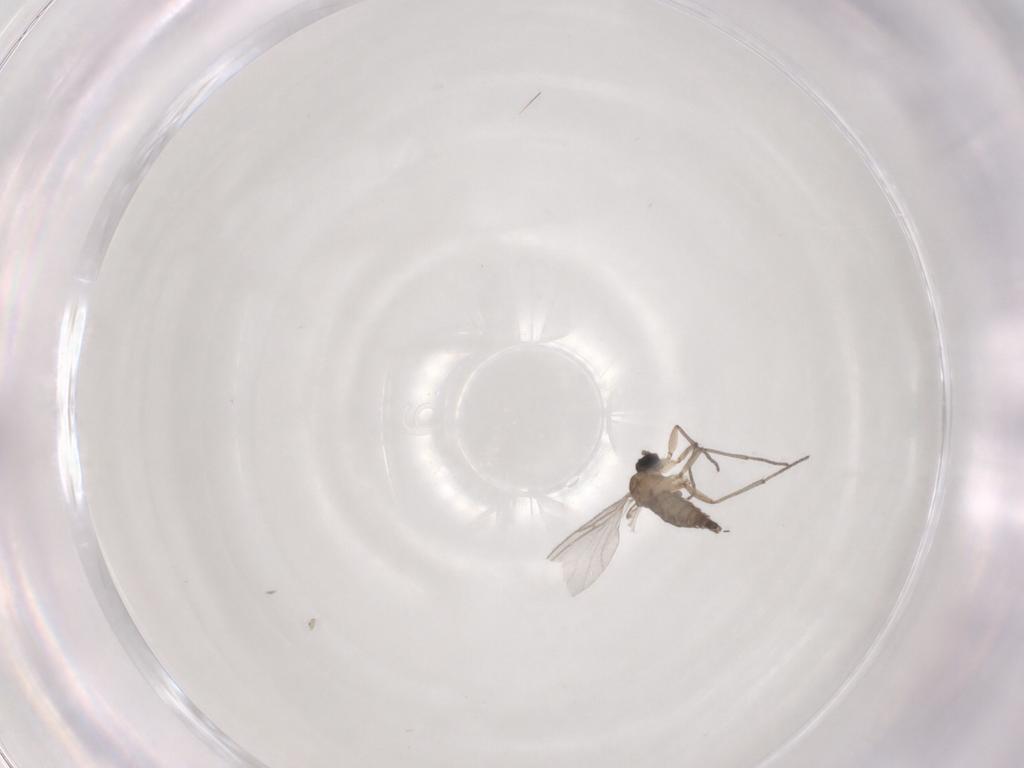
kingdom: Animalia
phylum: Arthropoda
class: Insecta
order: Diptera
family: Sciaridae
